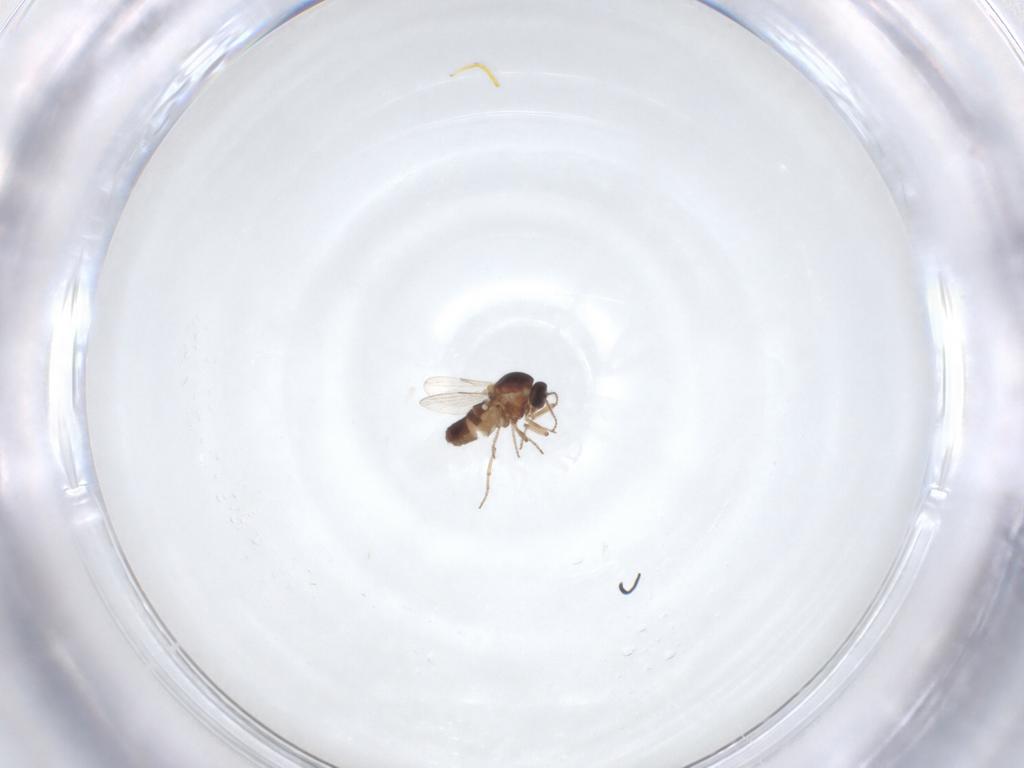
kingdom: Animalia
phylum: Arthropoda
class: Insecta
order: Diptera
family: Ceratopogonidae
